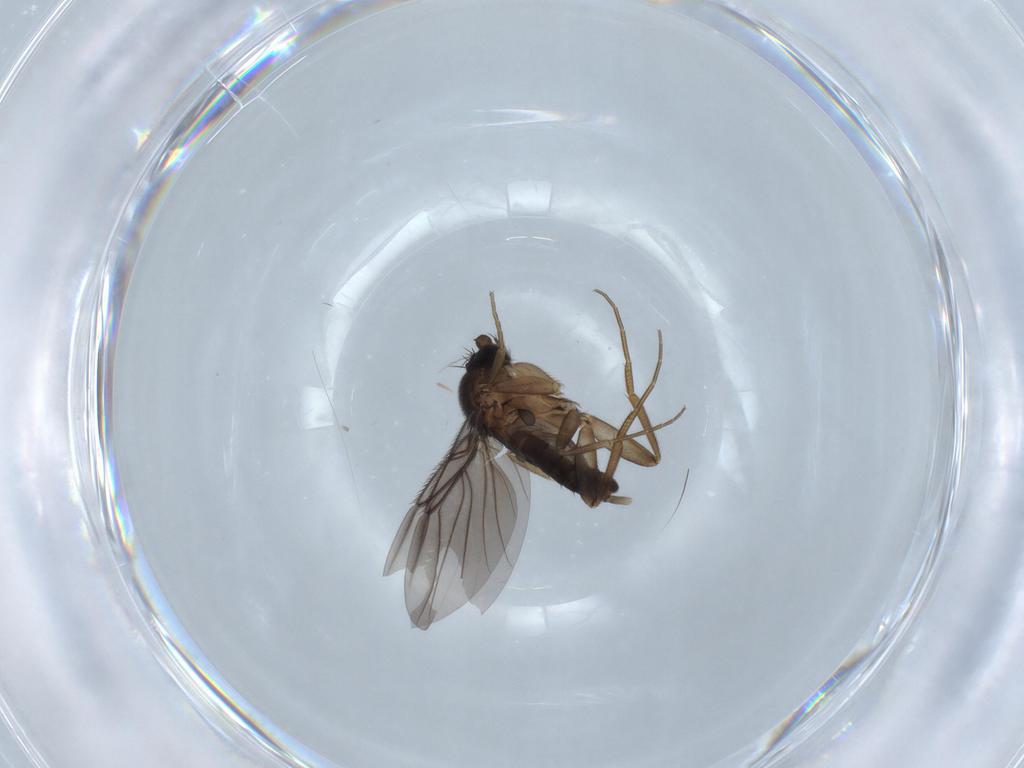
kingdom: Animalia
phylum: Arthropoda
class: Insecta
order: Diptera
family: Phoridae
